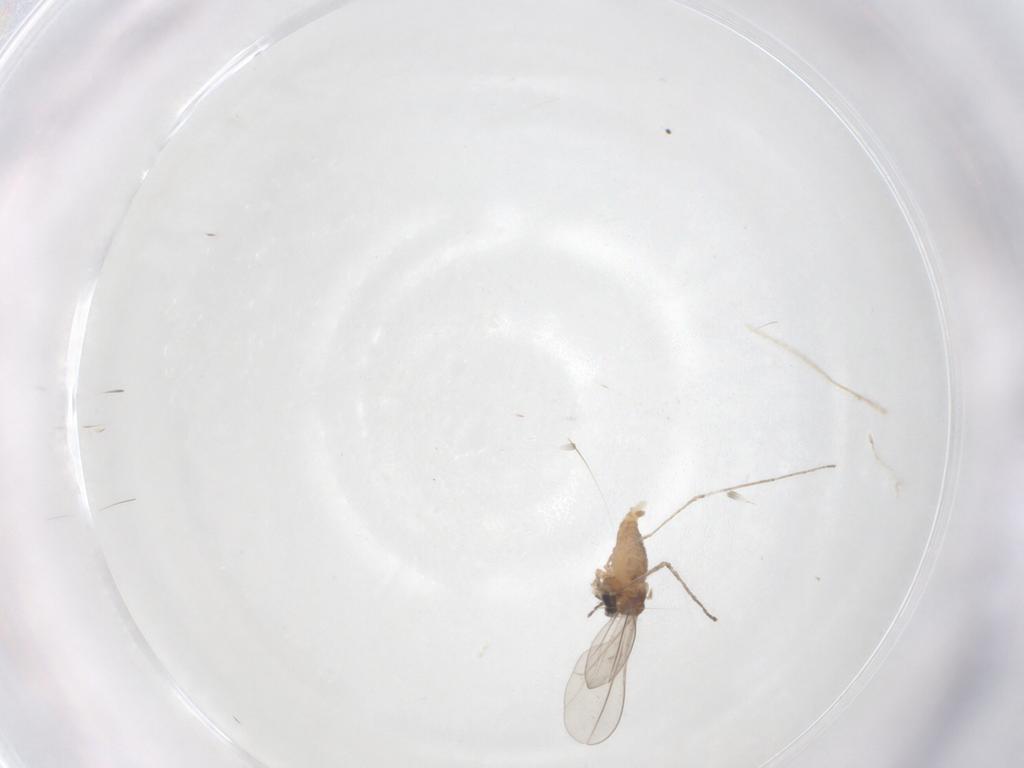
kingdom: Animalia
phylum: Arthropoda
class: Insecta
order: Diptera
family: Cecidomyiidae
